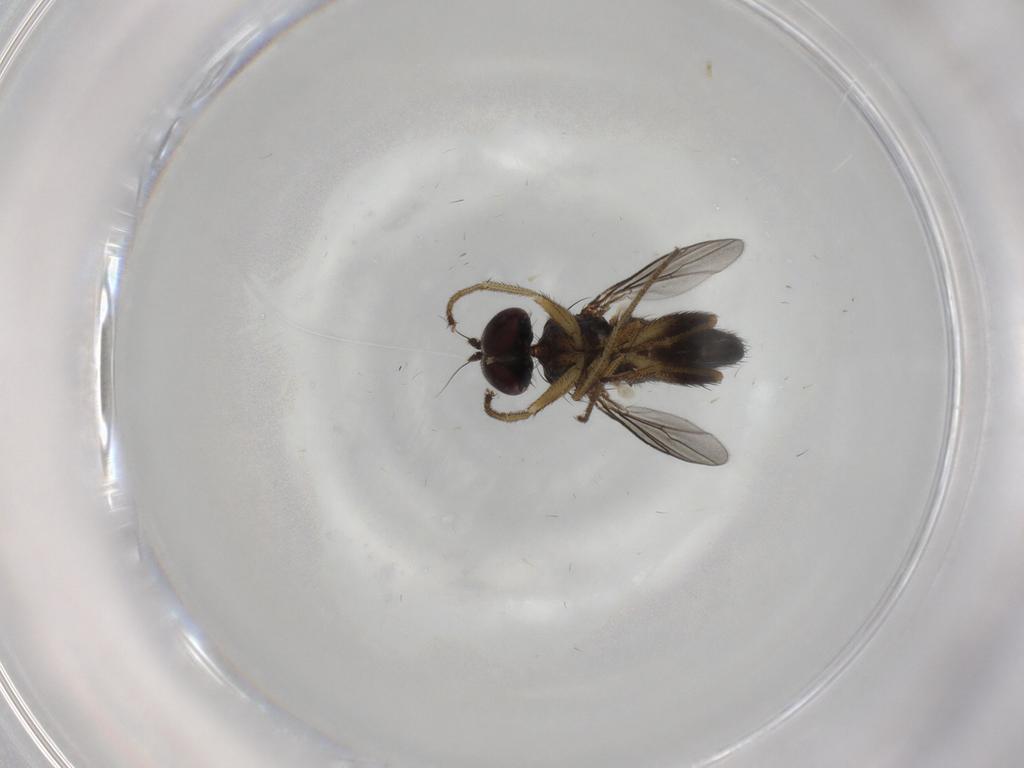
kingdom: Animalia
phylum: Arthropoda
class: Insecta
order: Diptera
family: Dolichopodidae
